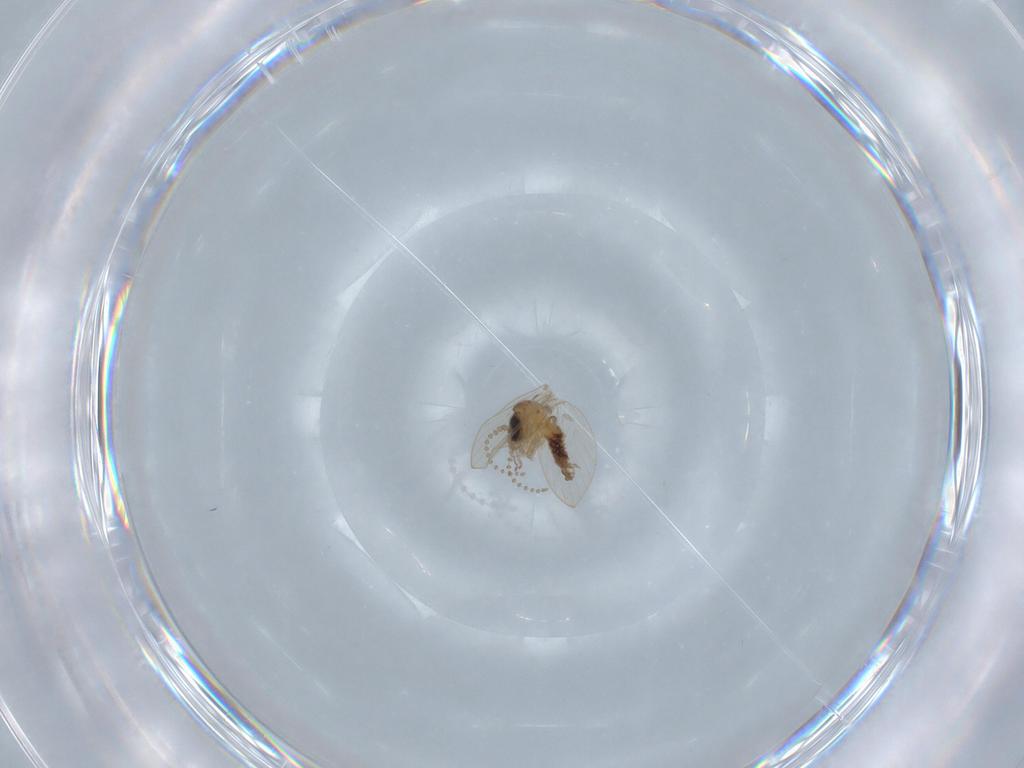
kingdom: Animalia
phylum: Arthropoda
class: Insecta
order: Diptera
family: Psychodidae
